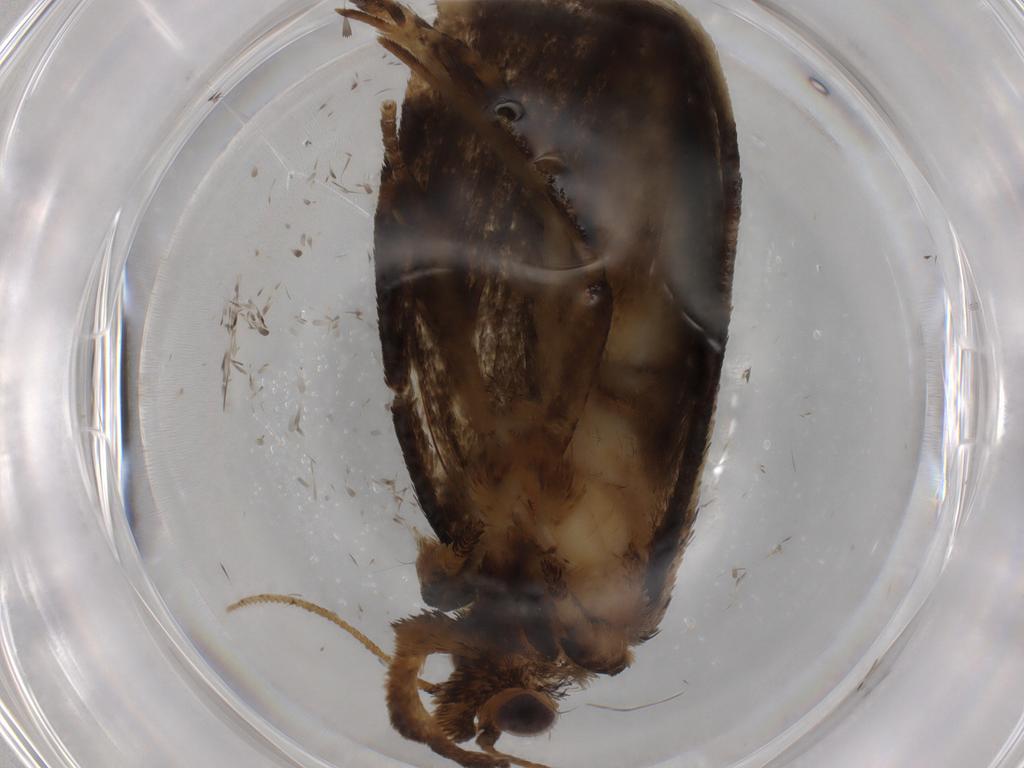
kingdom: Animalia
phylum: Arthropoda
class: Insecta
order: Lepidoptera
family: Tineidae
